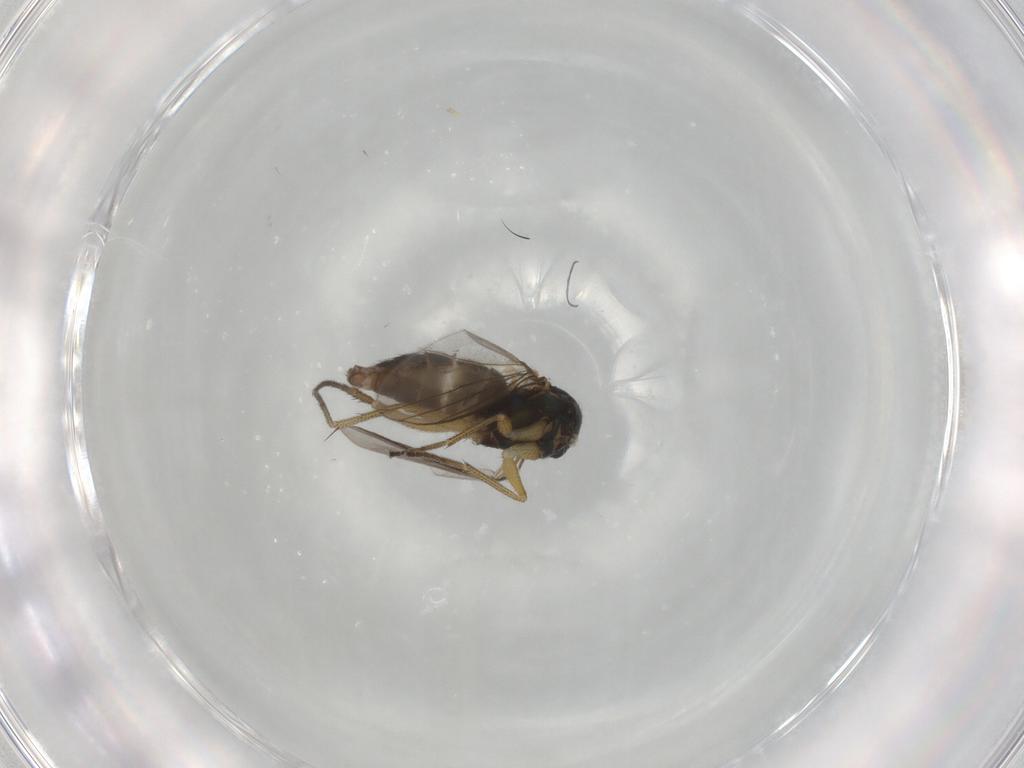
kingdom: Animalia
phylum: Arthropoda
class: Insecta
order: Diptera
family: Dolichopodidae
